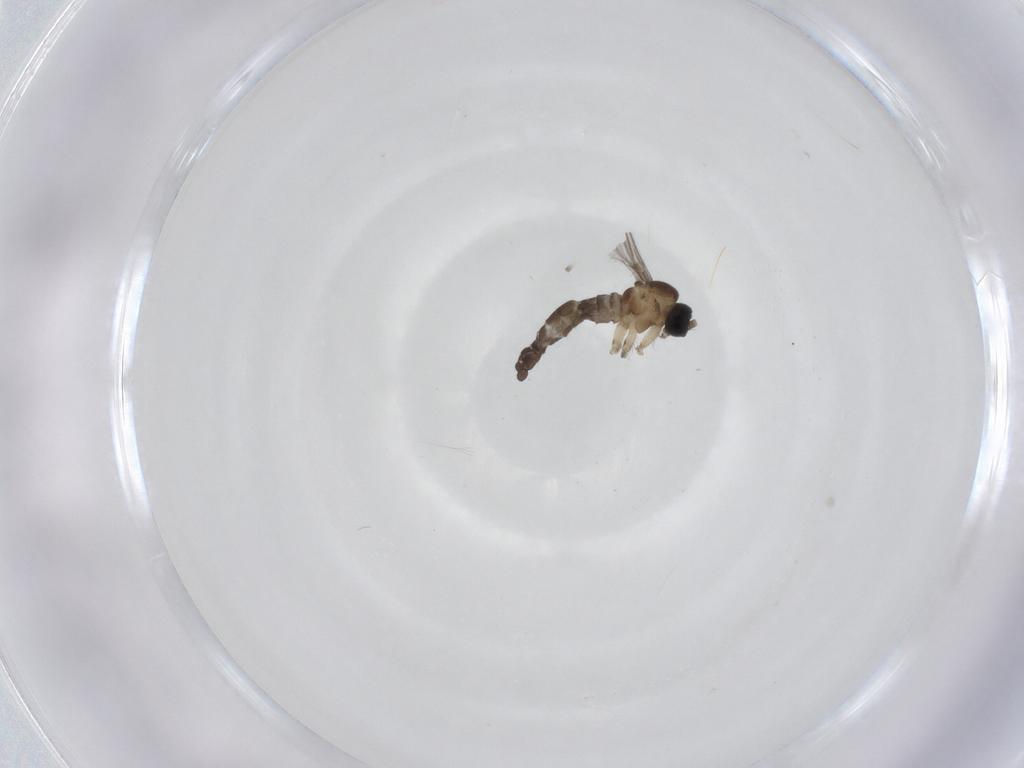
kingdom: Animalia
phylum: Arthropoda
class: Insecta
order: Diptera
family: Sciaridae
